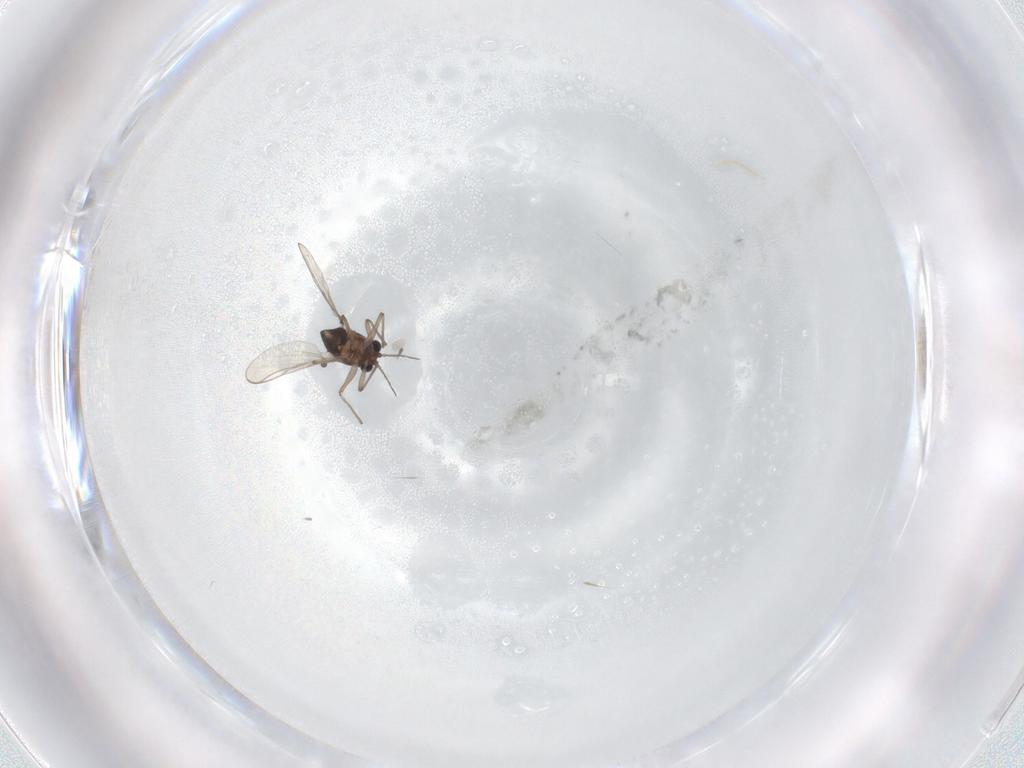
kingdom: Animalia
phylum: Arthropoda
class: Insecta
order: Diptera
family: Chironomidae
